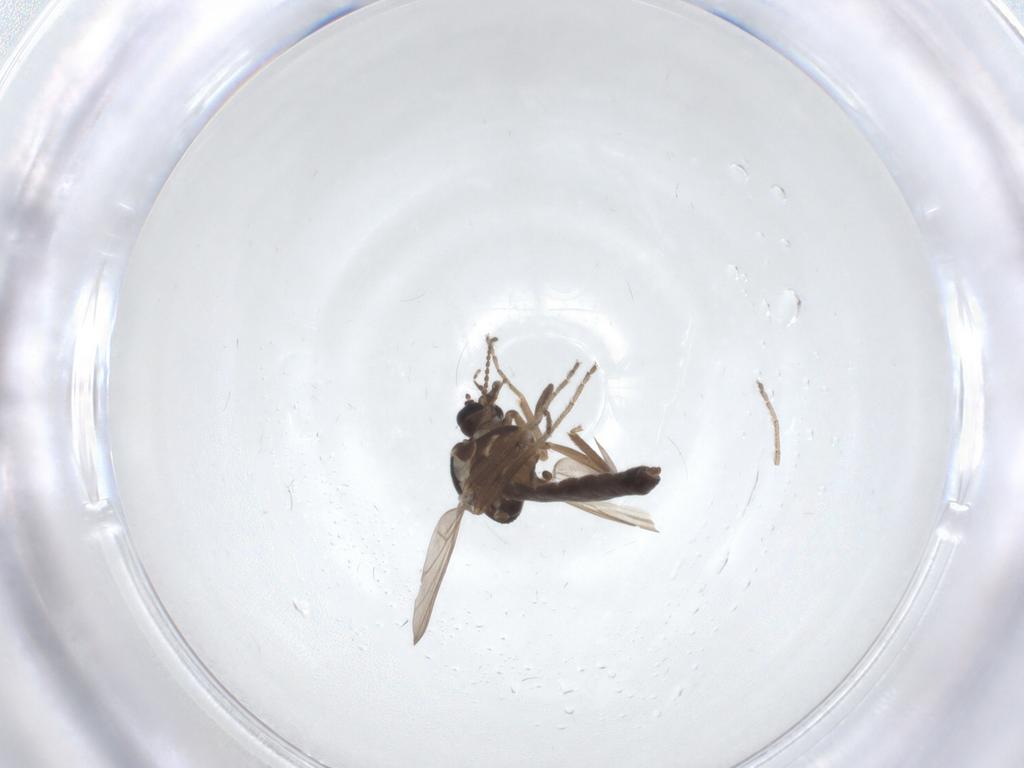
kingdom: Animalia
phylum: Arthropoda
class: Insecta
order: Diptera
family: Ceratopogonidae
